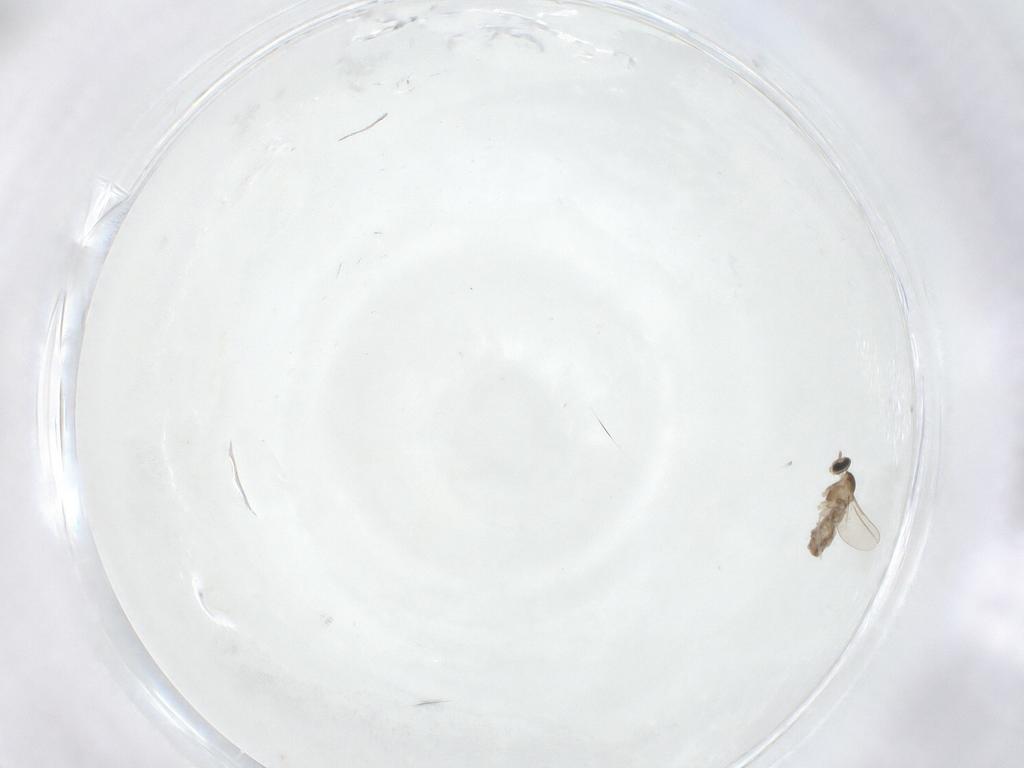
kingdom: Animalia
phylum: Arthropoda
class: Insecta
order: Diptera
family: Cecidomyiidae
